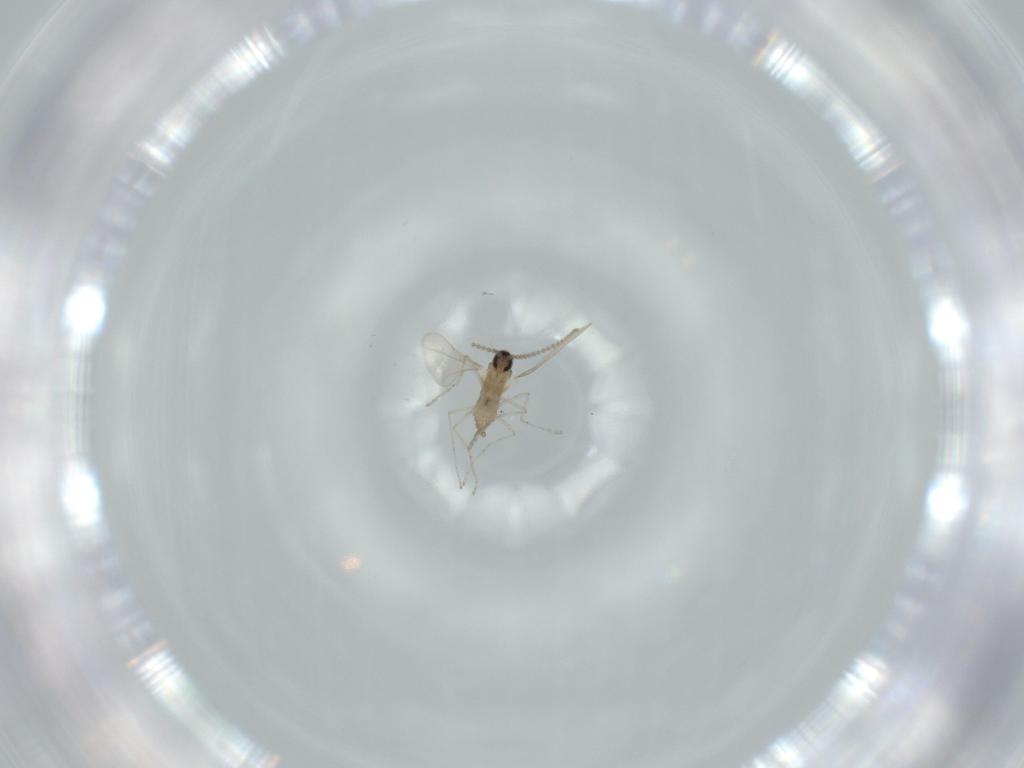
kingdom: Animalia
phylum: Arthropoda
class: Insecta
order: Diptera
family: Cecidomyiidae
